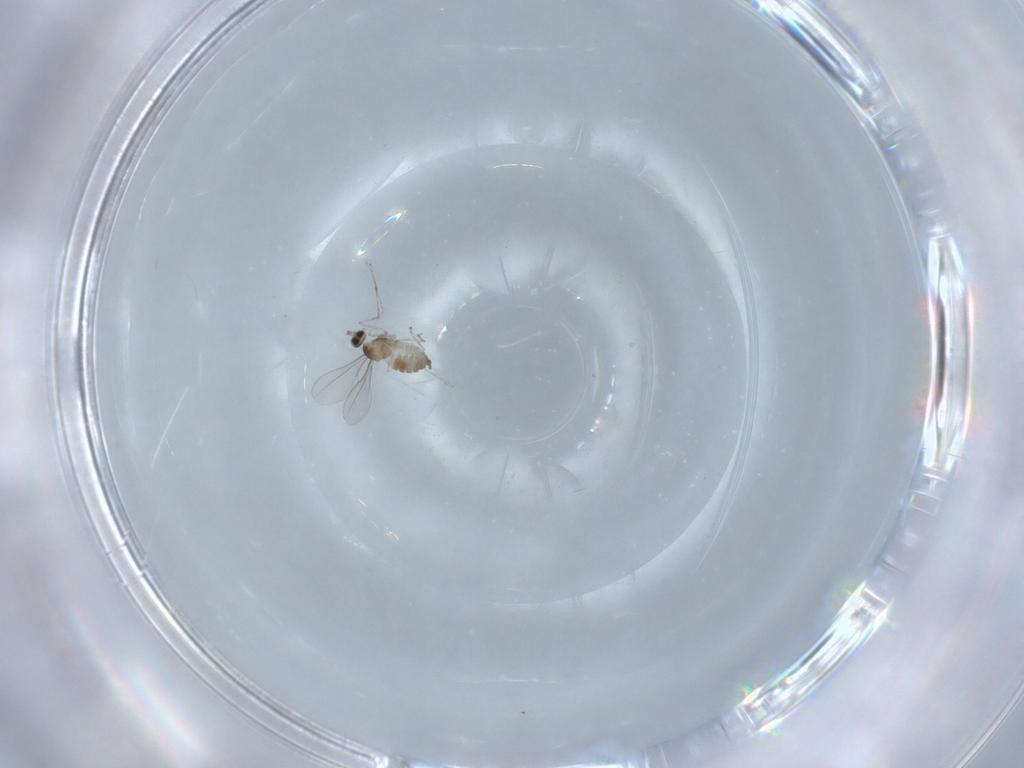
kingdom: Animalia
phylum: Arthropoda
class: Insecta
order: Diptera
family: Cecidomyiidae
